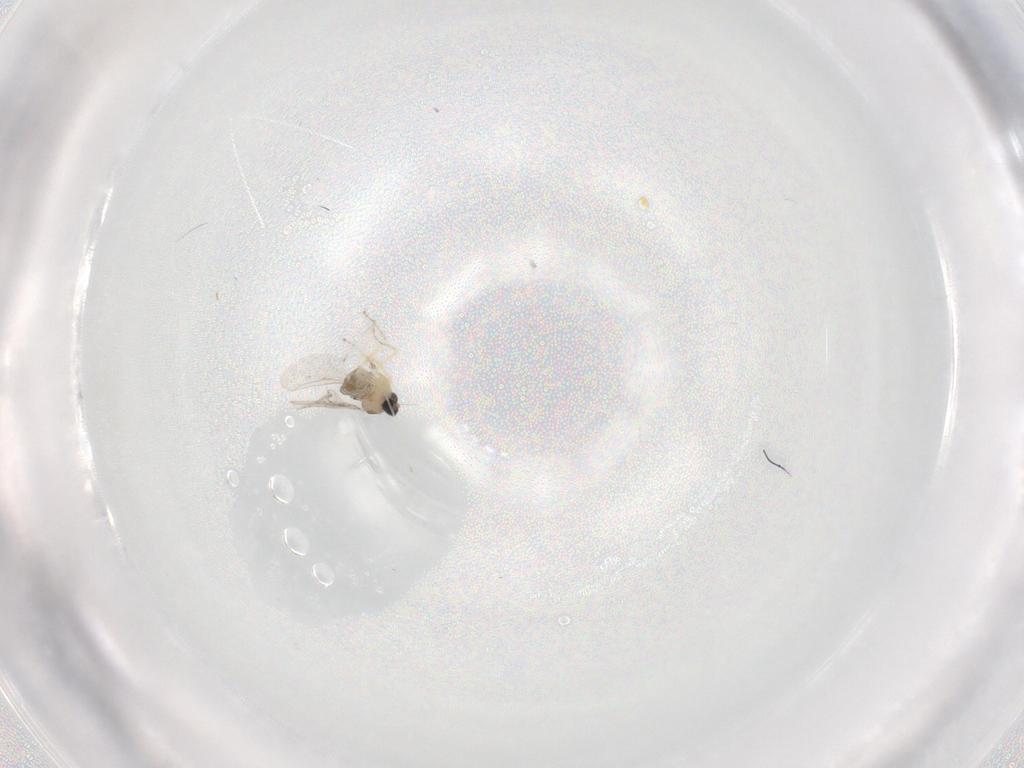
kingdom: Animalia
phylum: Arthropoda
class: Insecta
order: Diptera
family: Cecidomyiidae
